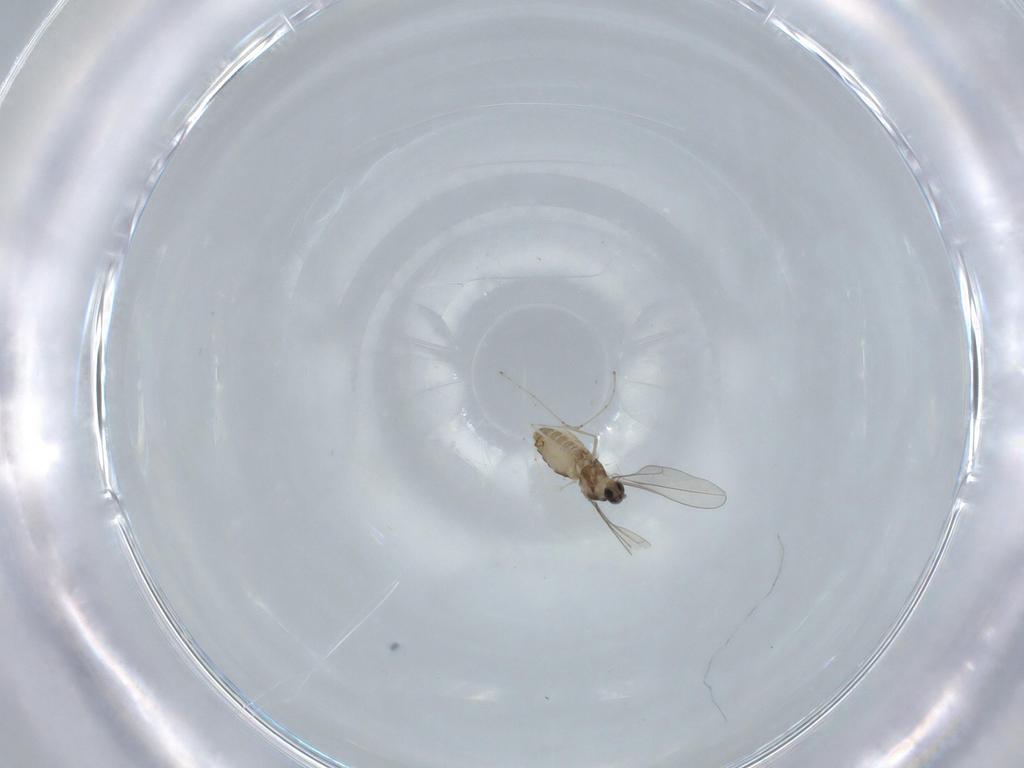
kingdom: Animalia
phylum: Arthropoda
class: Insecta
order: Diptera
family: Cecidomyiidae
